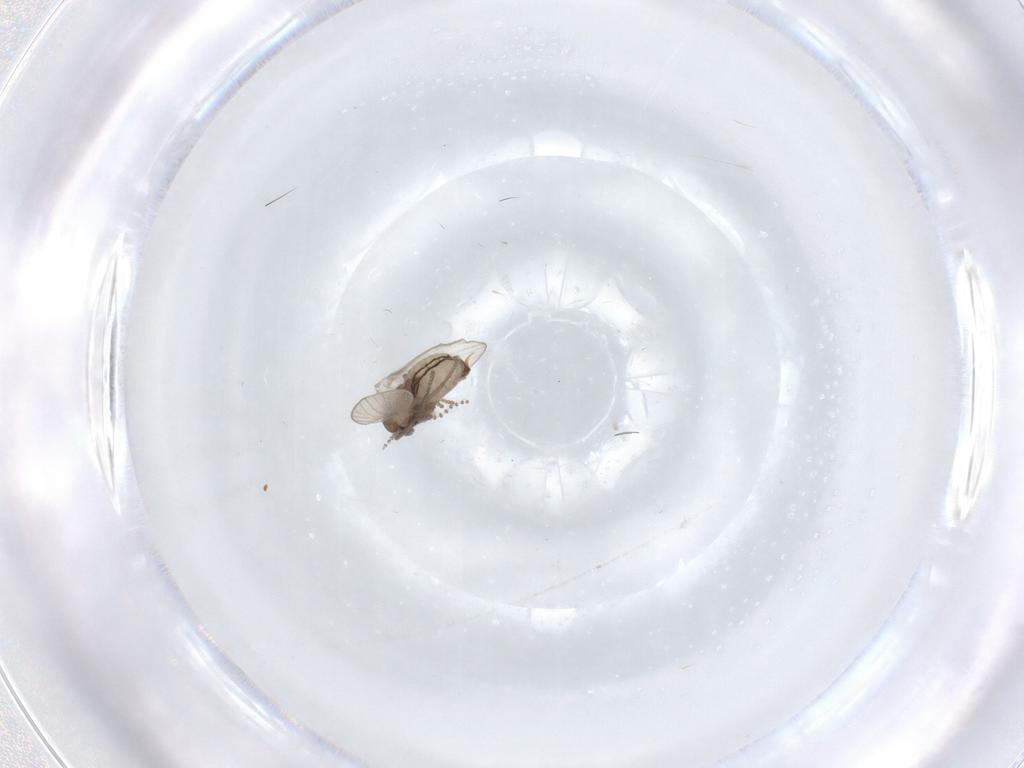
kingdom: Animalia
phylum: Arthropoda
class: Insecta
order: Diptera
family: Psychodidae
